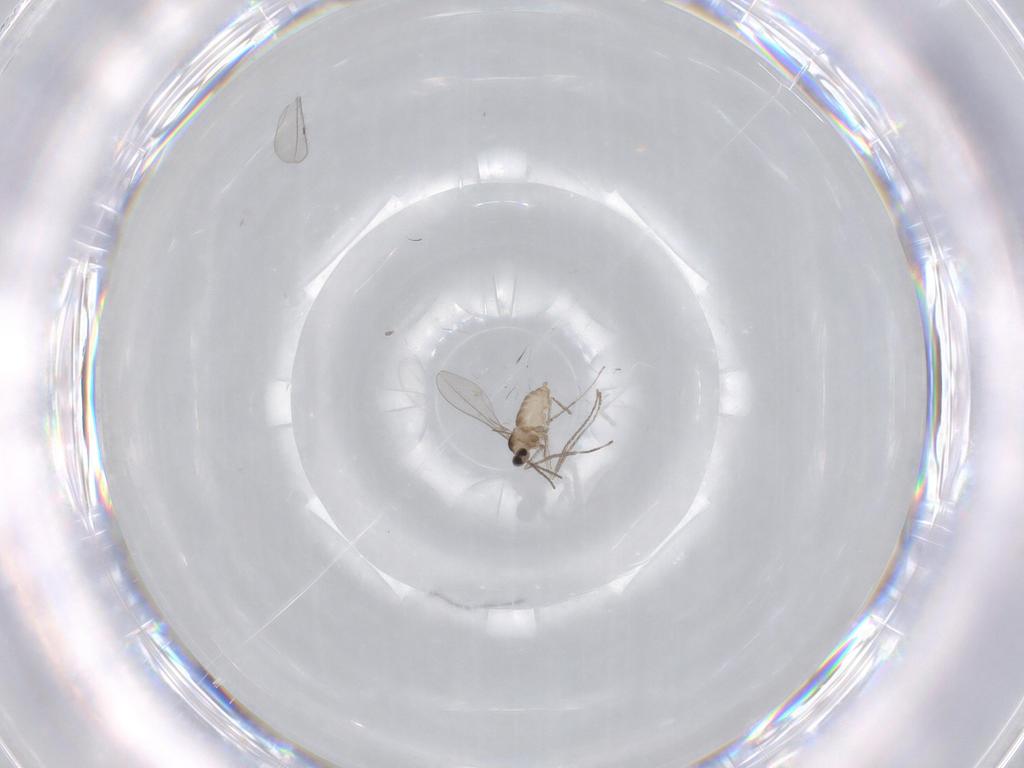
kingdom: Animalia
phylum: Arthropoda
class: Insecta
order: Diptera
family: Cecidomyiidae
